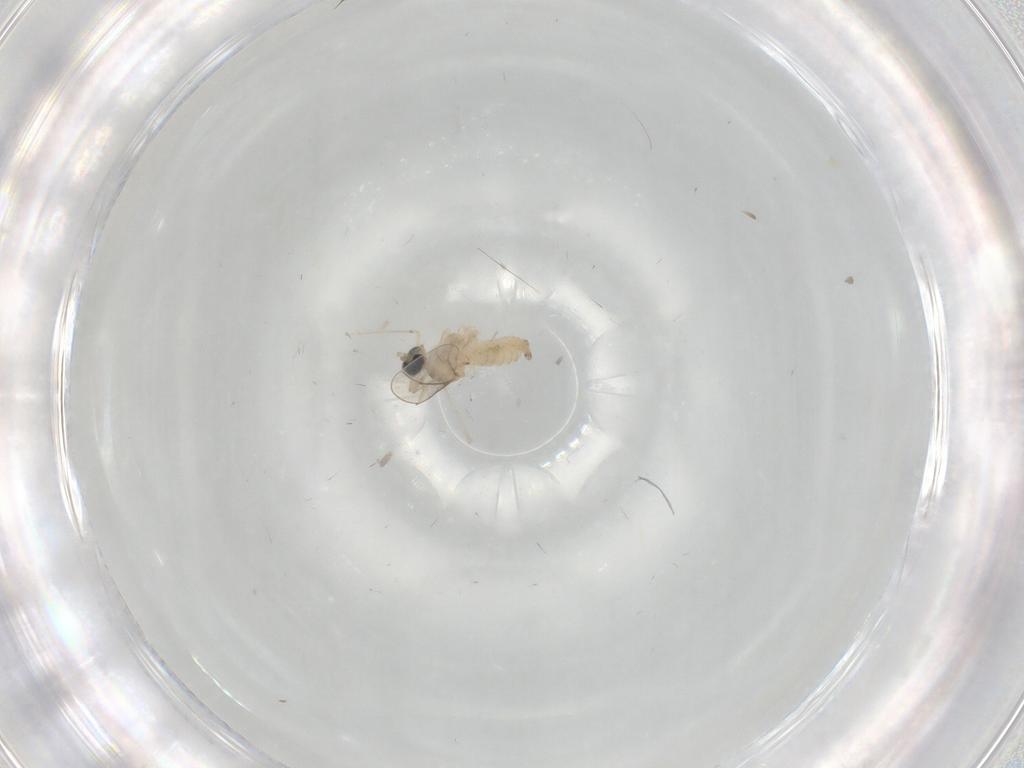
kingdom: Animalia
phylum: Arthropoda
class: Insecta
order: Diptera
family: Cecidomyiidae
